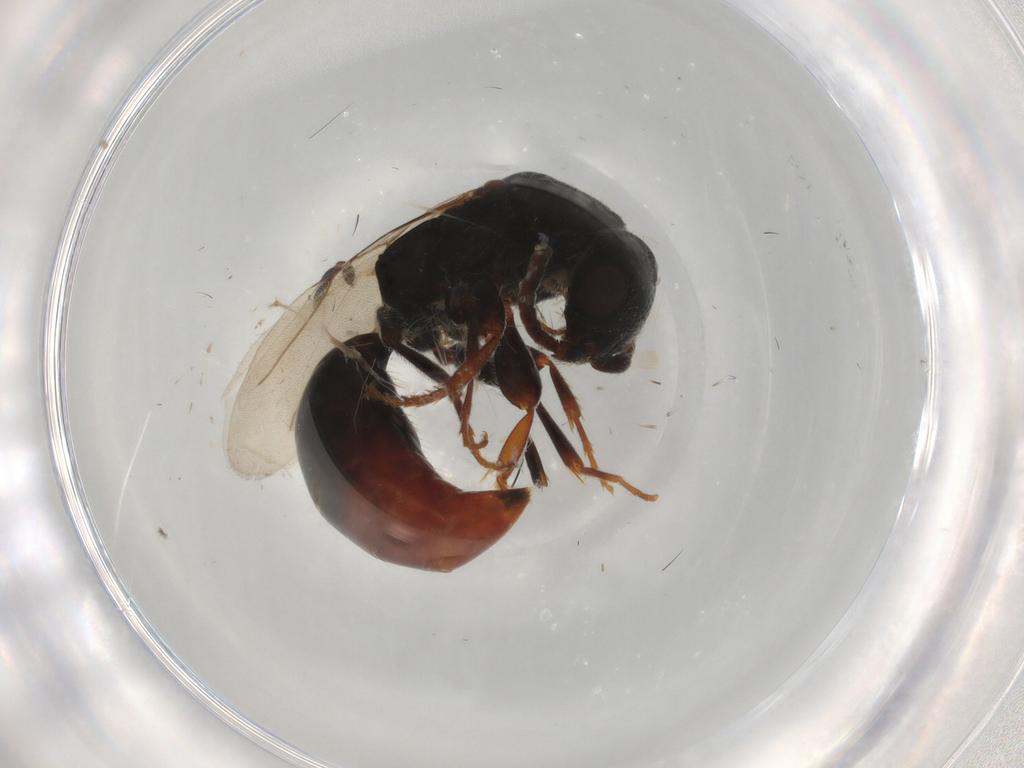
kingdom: Animalia
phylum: Arthropoda
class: Insecta
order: Hymenoptera
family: Bethylidae
